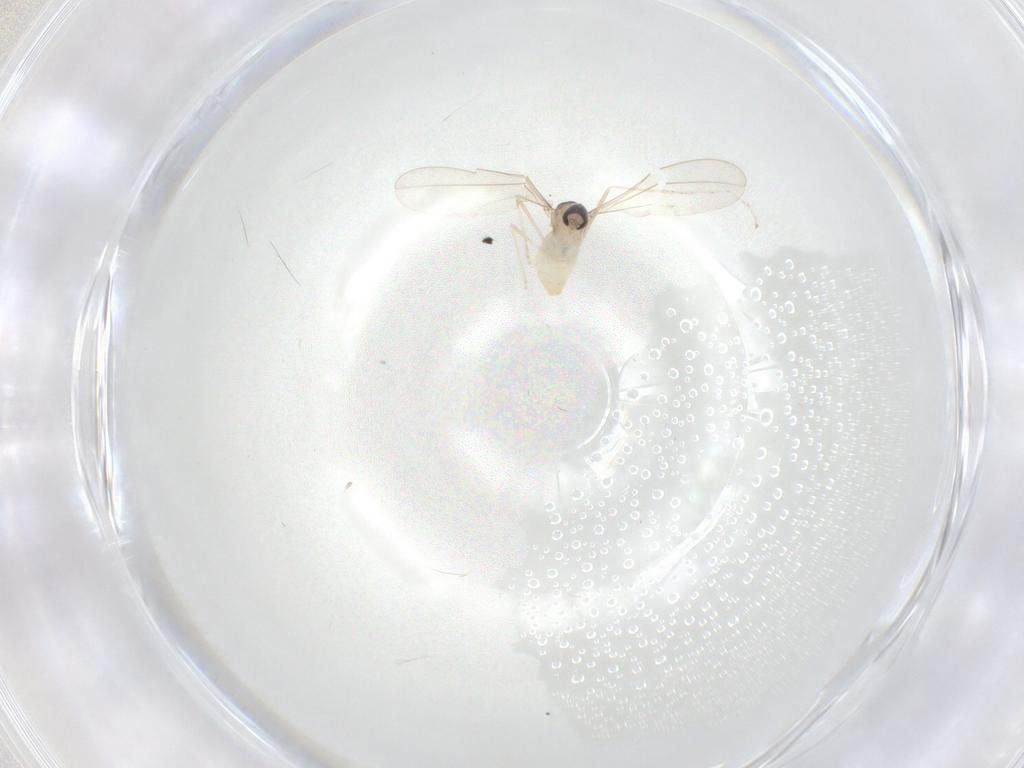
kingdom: Animalia
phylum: Arthropoda
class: Insecta
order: Diptera
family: Cecidomyiidae
